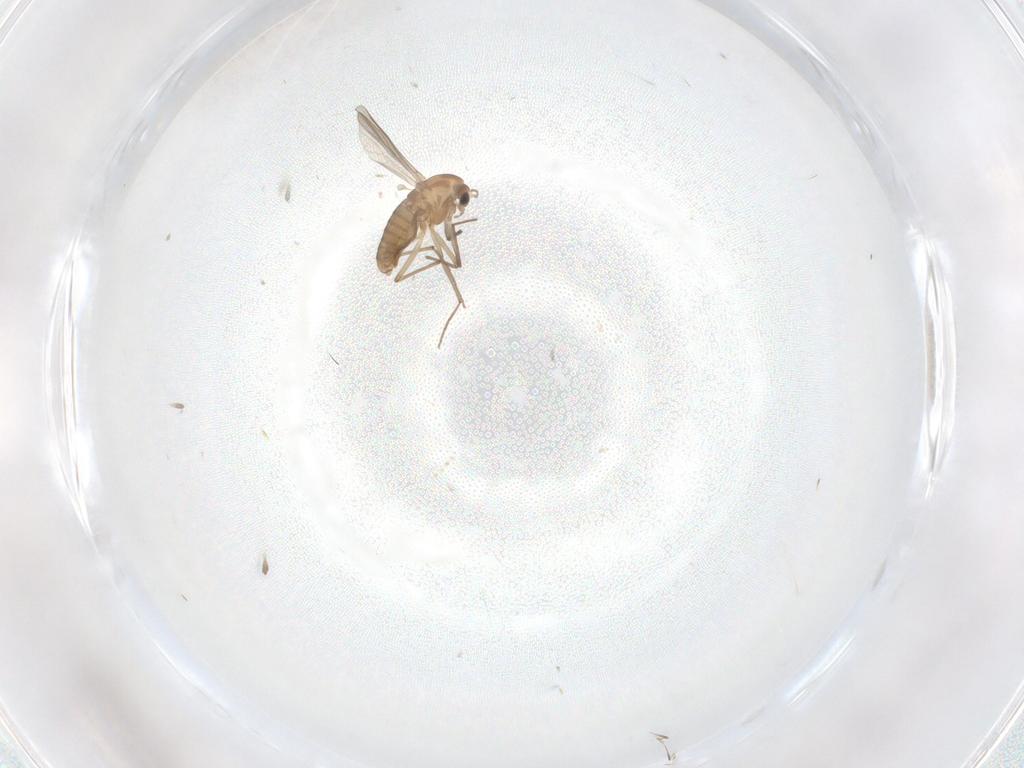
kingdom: Animalia
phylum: Arthropoda
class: Insecta
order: Diptera
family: Chironomidae
